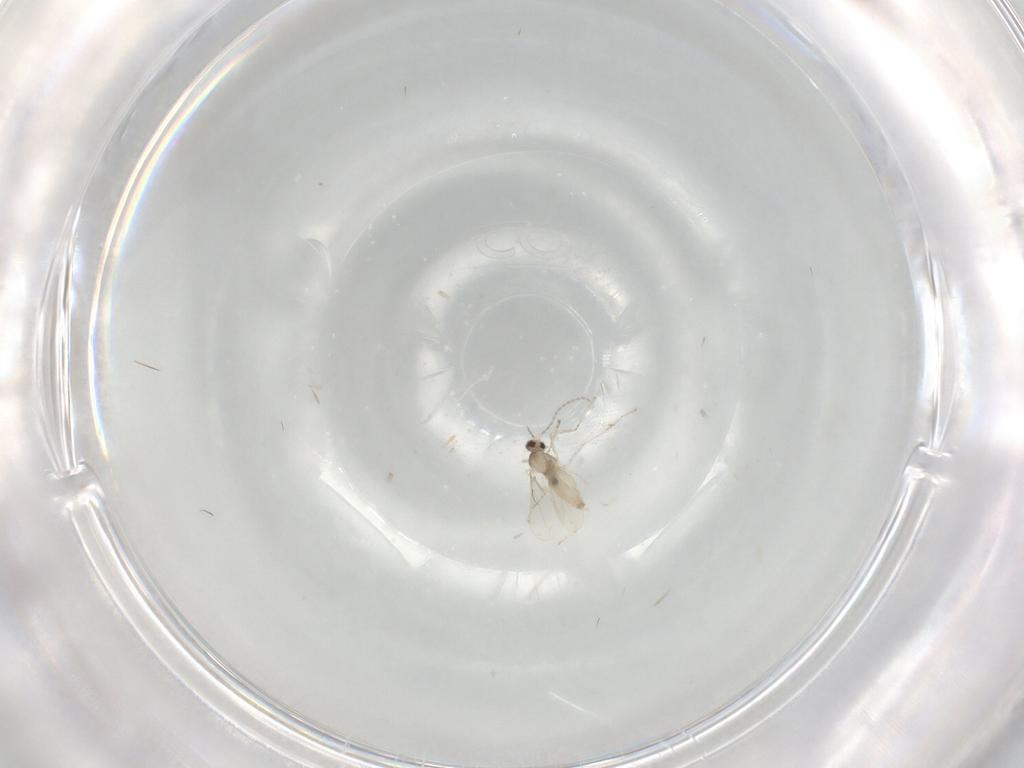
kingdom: Animalia
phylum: Arthropoda
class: Insecta
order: Diptera
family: Cecidomyiidae
